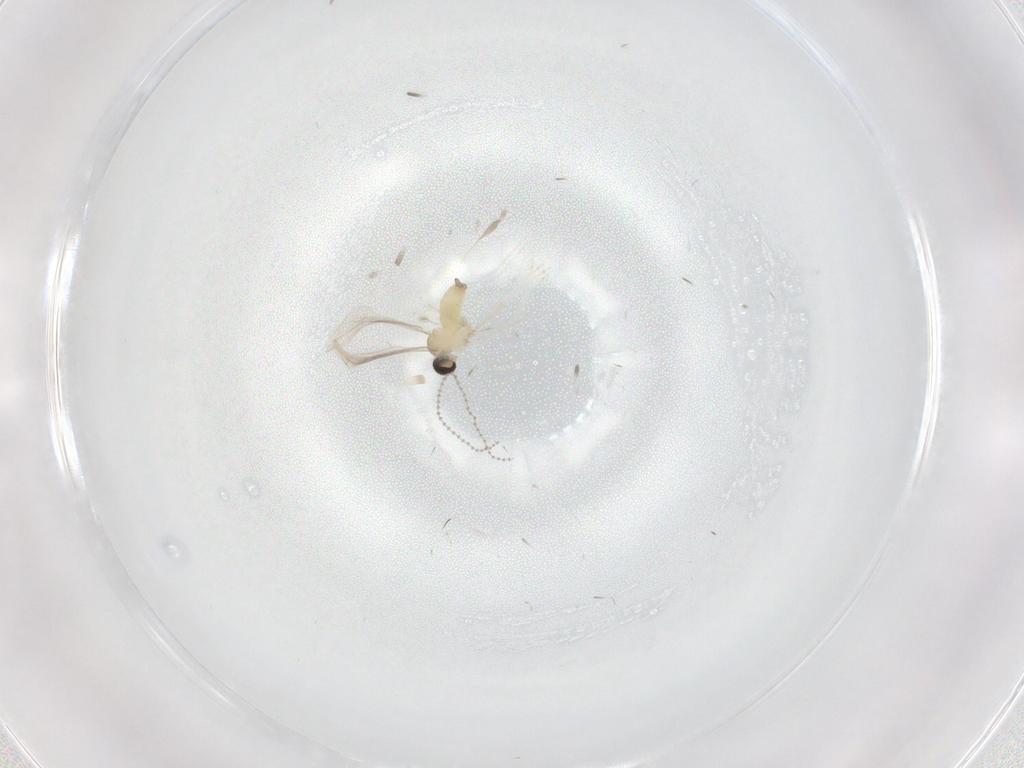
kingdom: Animalia
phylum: Arthropoda
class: Insecta
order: Diptera
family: Cecidomyiidae
